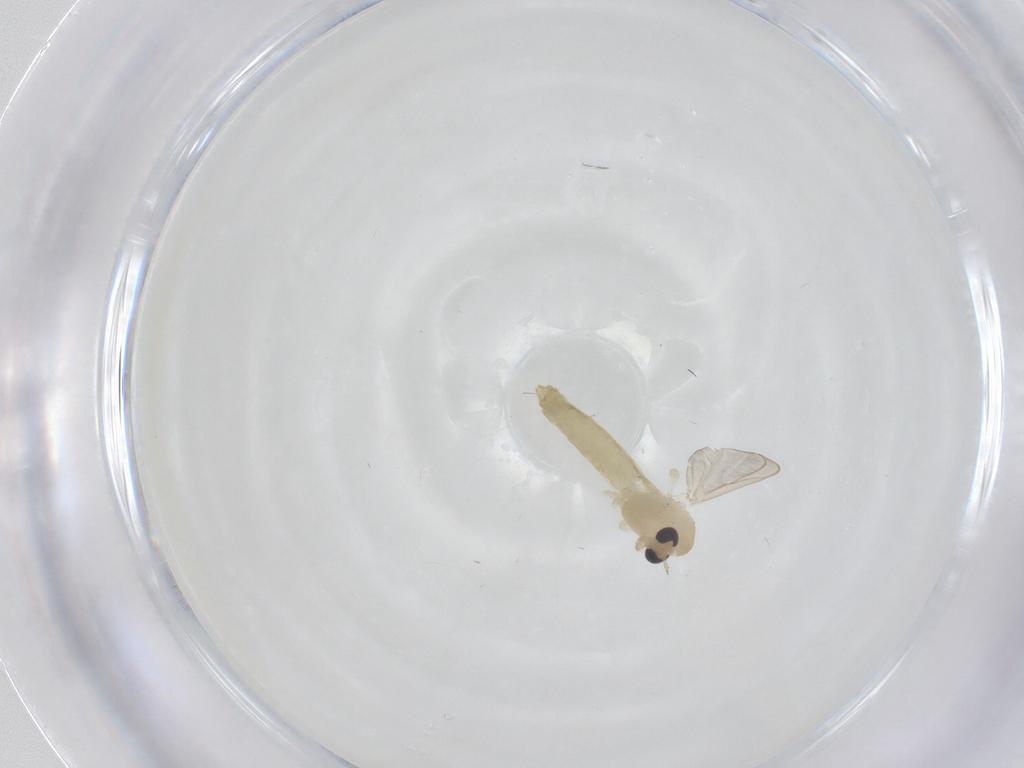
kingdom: Animalia
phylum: Arthropoda
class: Insecta
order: Diptera
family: Chironomidae
